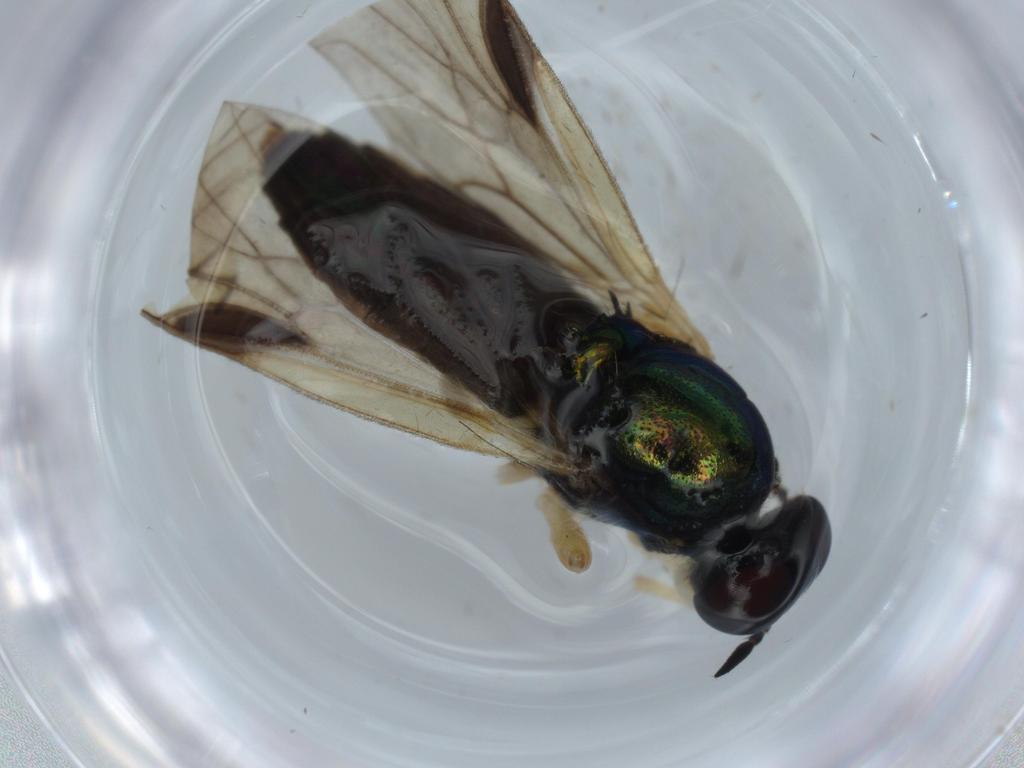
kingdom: Animalia
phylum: Arthropoda
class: Insecta
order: Diptera
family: Stratiomyidae
